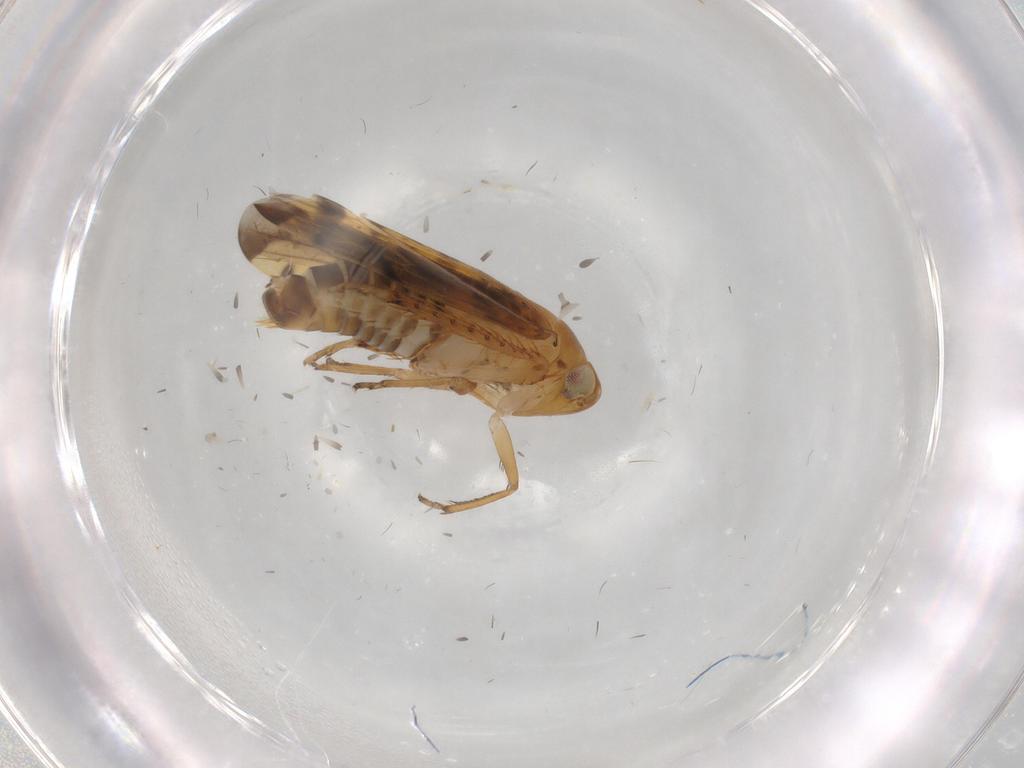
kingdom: Animalia
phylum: Arthropoda
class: Insecta
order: Hemiptera
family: Cicadellidae
